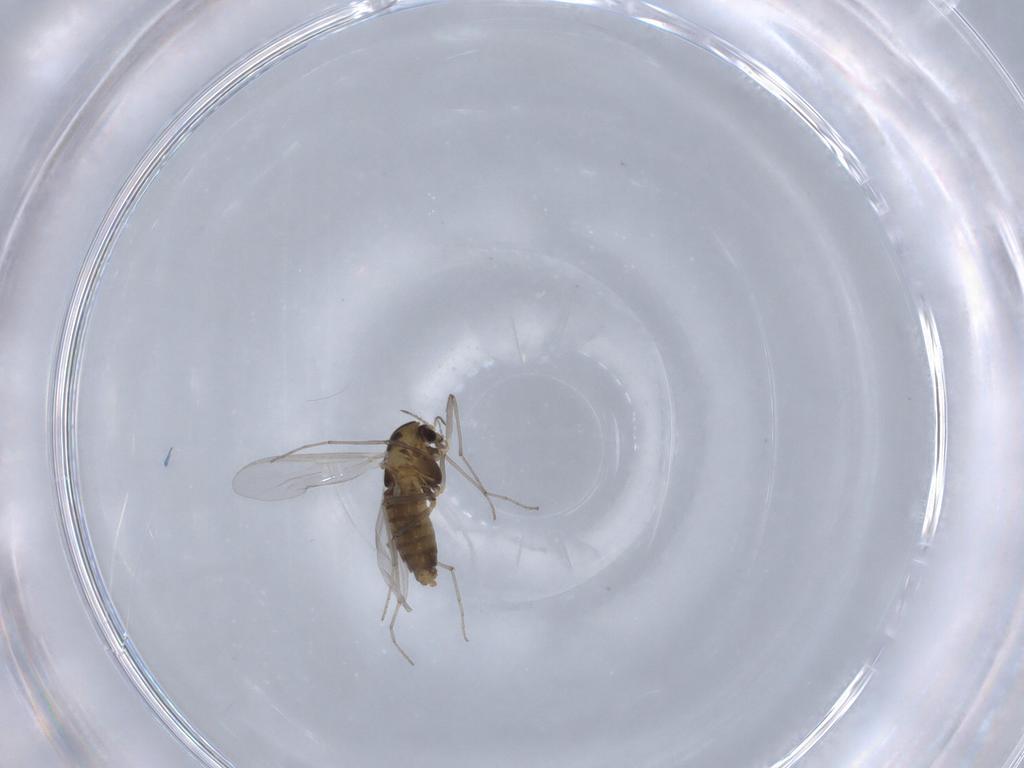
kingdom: Animalia
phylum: Arthropoda
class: Insecta
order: Diptera
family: Chironomidae
